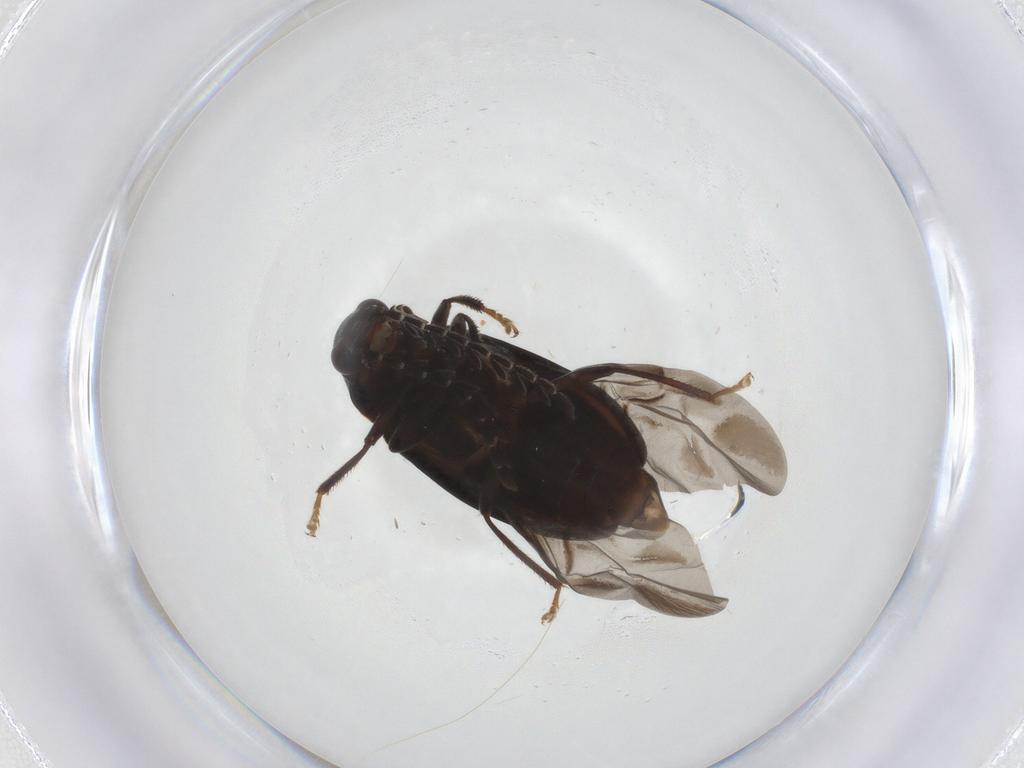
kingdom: Animalia
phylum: Arthropoda
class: Insecta
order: Coleoptera
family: Ptilodactylidae
